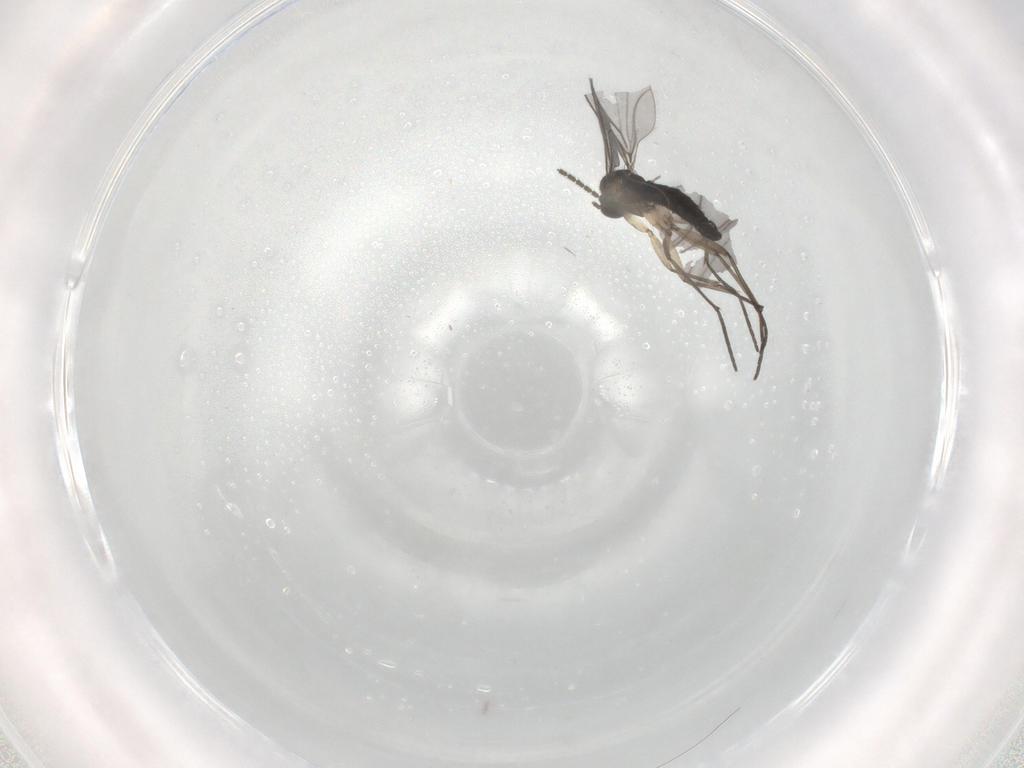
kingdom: Animalia
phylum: Arthropoda
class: Insecta
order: Diptera
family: Sciaridae
